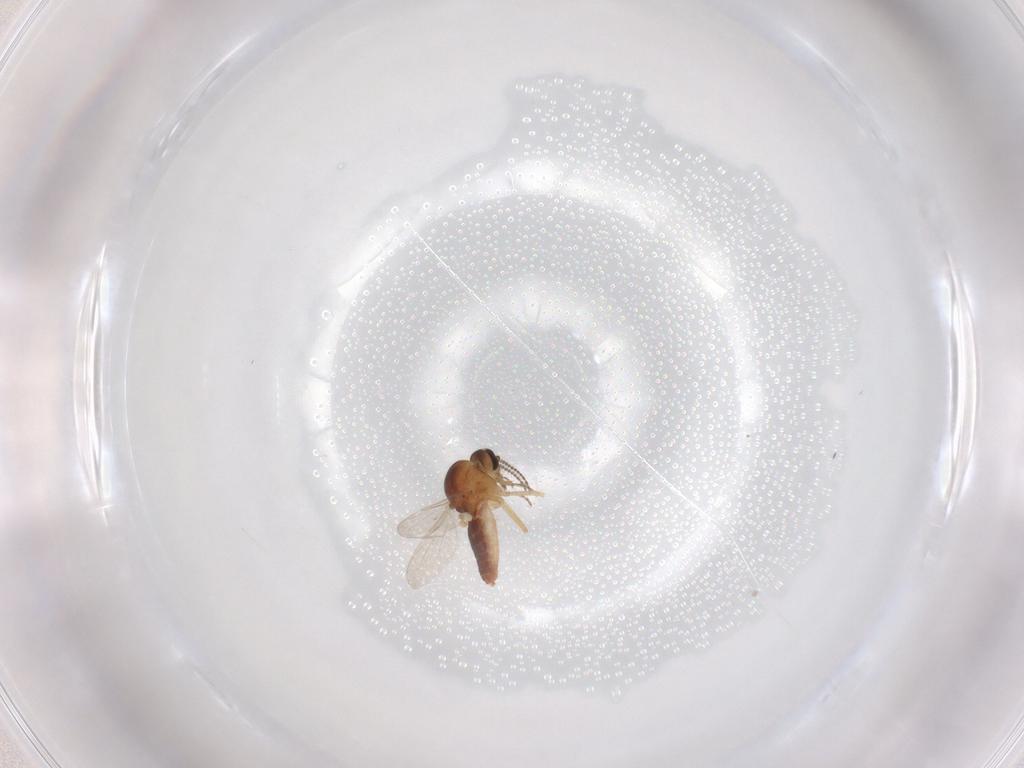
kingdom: Animalia
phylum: Arthropoda
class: Insecta
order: Diptera
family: Ceratopogonidae
